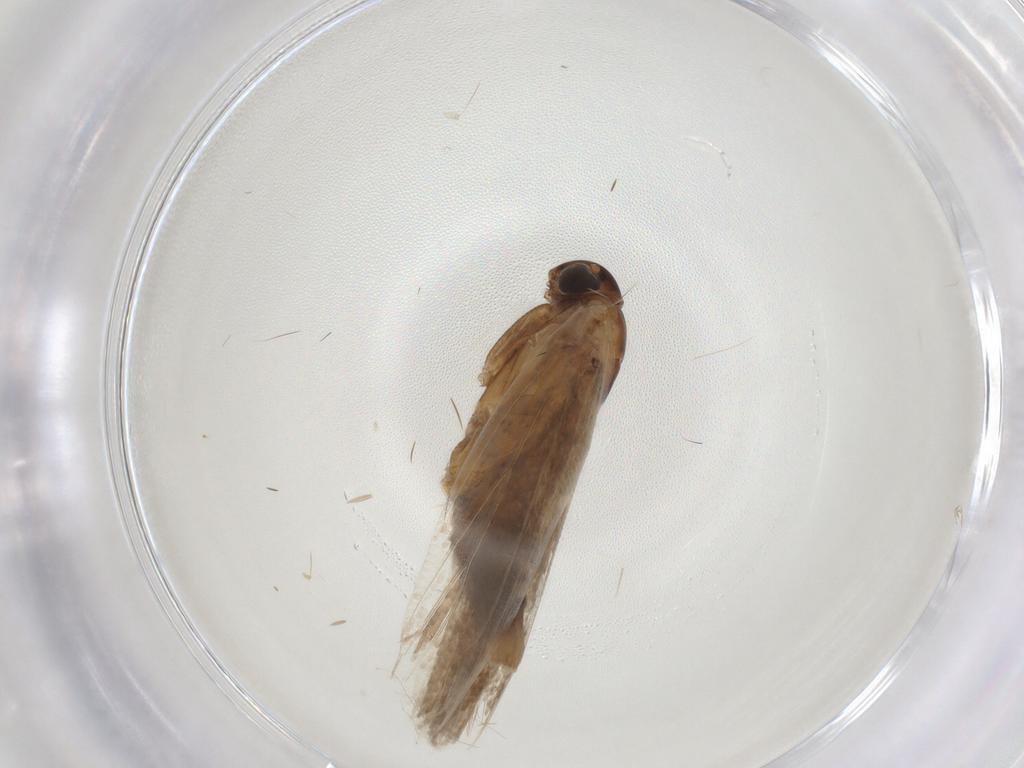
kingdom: Animalia
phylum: Arthropoda
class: Insecta
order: Lepidoptera
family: Gelechiidae
